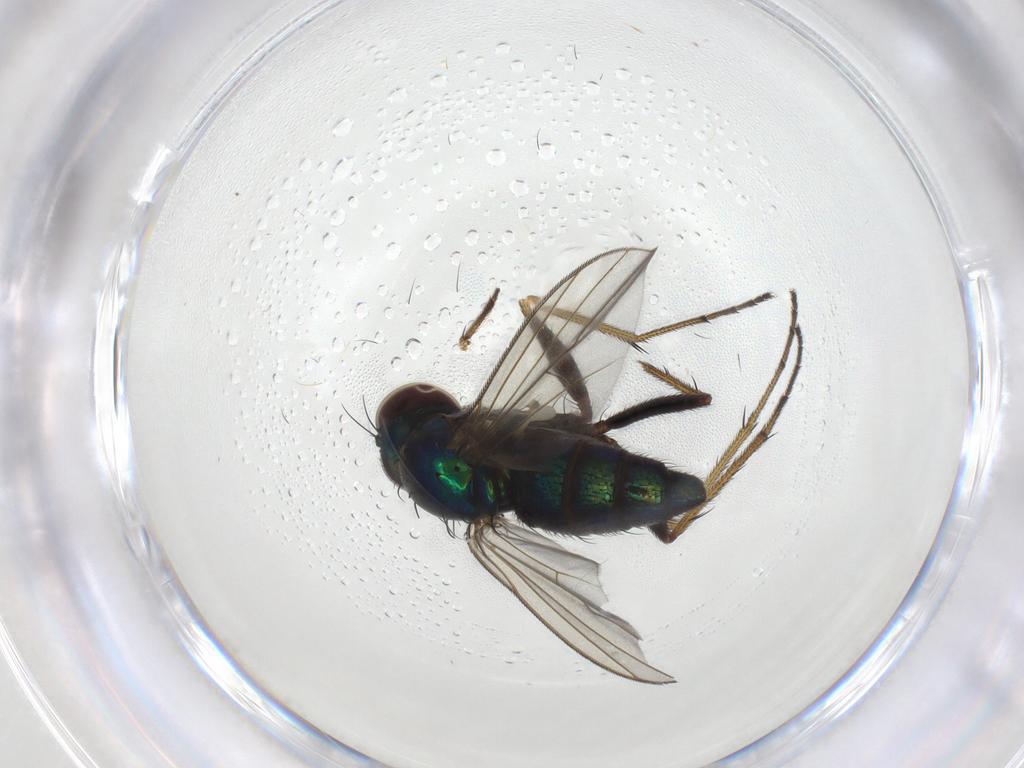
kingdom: Animalia
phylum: Arthropoda
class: Insecta
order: Diptera
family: Dolichopodidae
